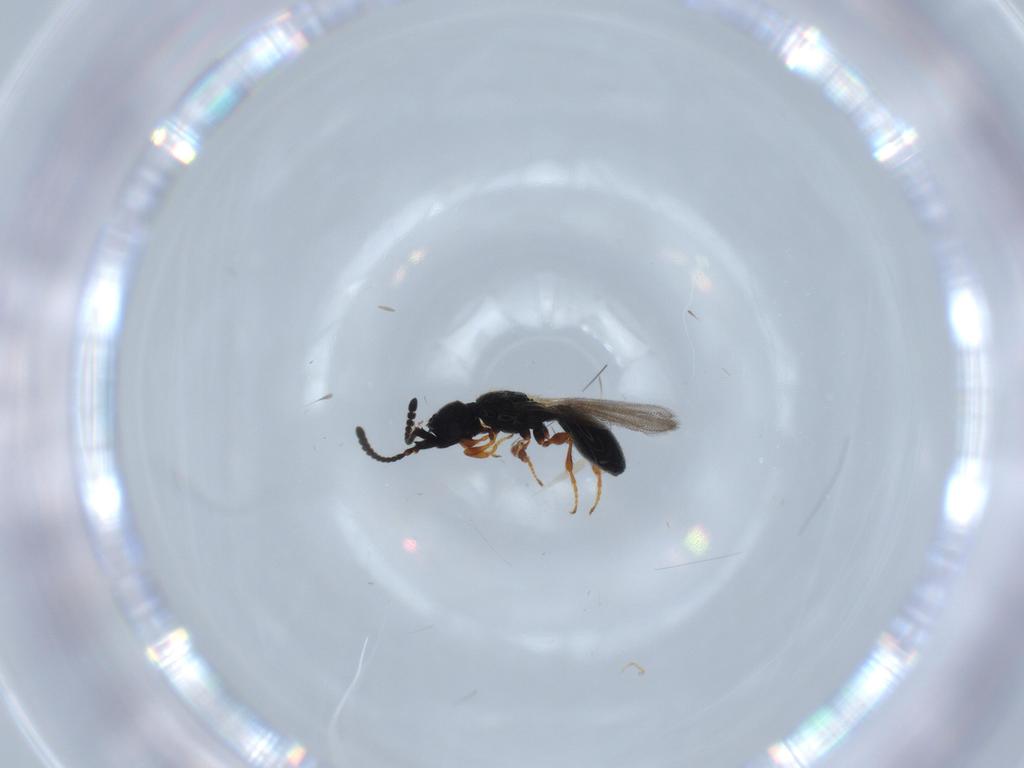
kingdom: Animalia
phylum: Arthropoda
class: Insecta
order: Hymenoptera
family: Diapriidae
